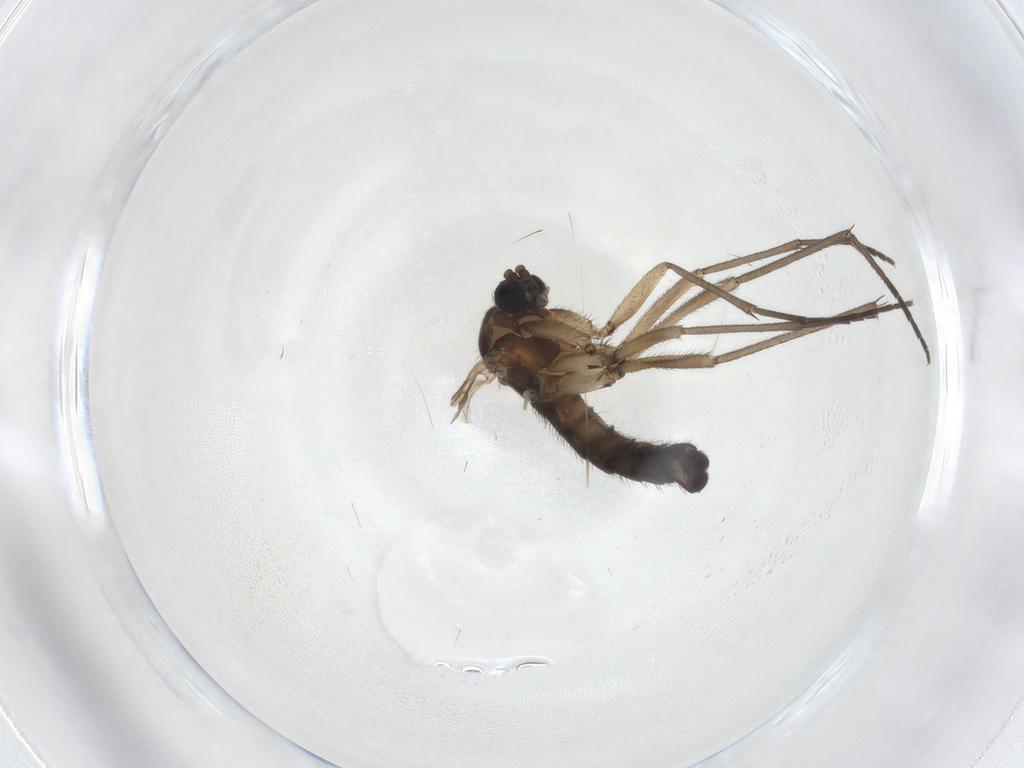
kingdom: Animalia
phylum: Arthropoda
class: Insecta
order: Diptera
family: Sciaridae
